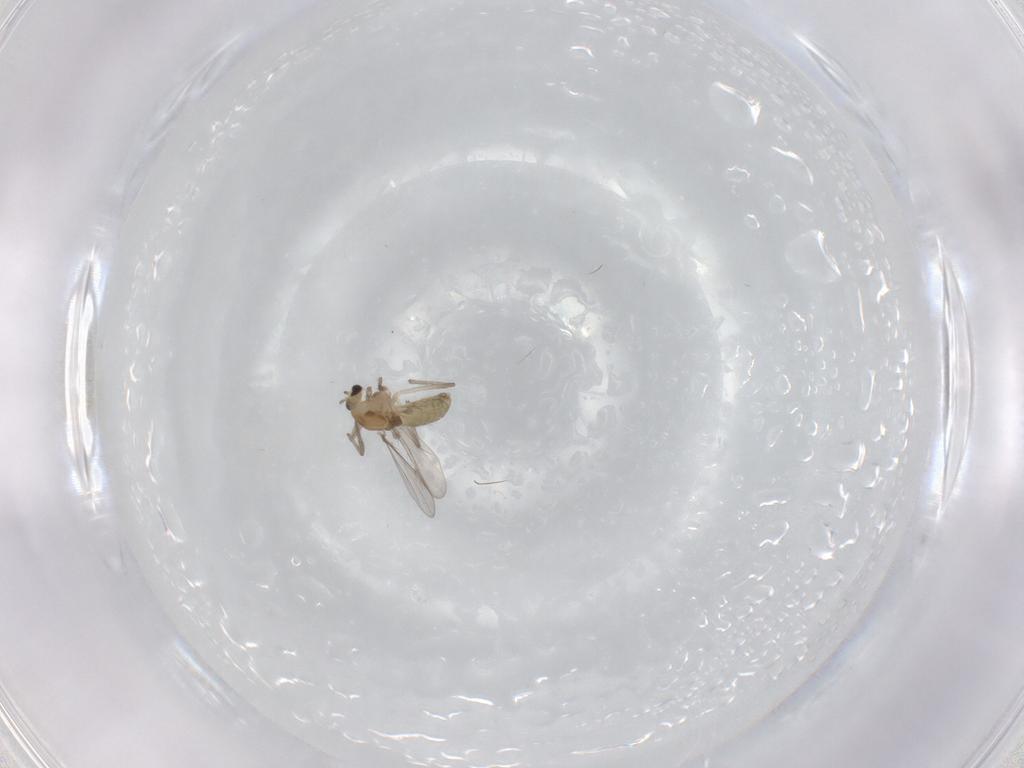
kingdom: Animalia
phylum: Arthropoda
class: Insecta
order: Diptera
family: Chironomidae
